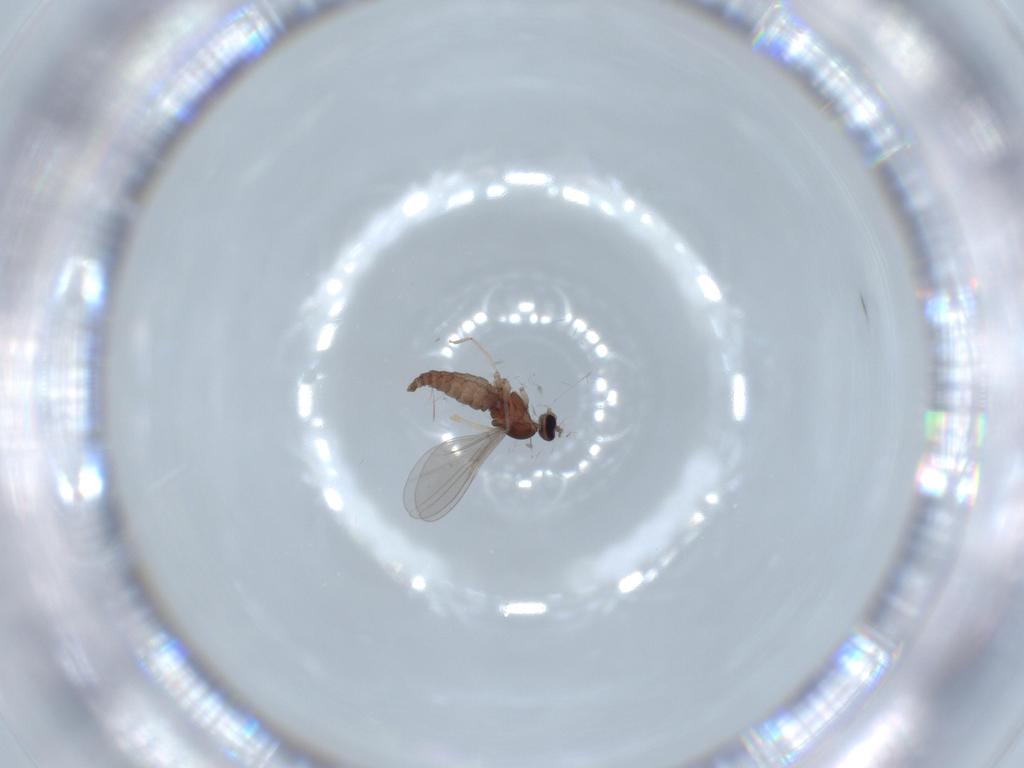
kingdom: Animalia
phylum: Arthropoda
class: Insecta
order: Diptera
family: Cecidomyiidae
